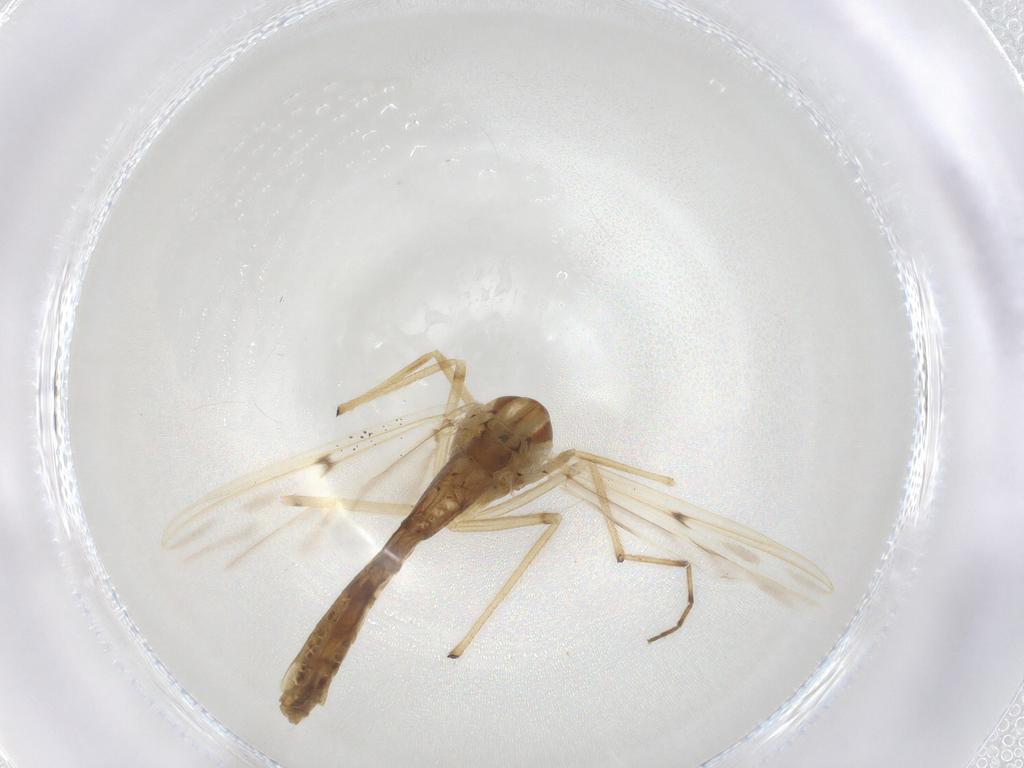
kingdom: Animalia
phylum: Arthropoda
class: Insecta
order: Diptera
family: Chironomidae
